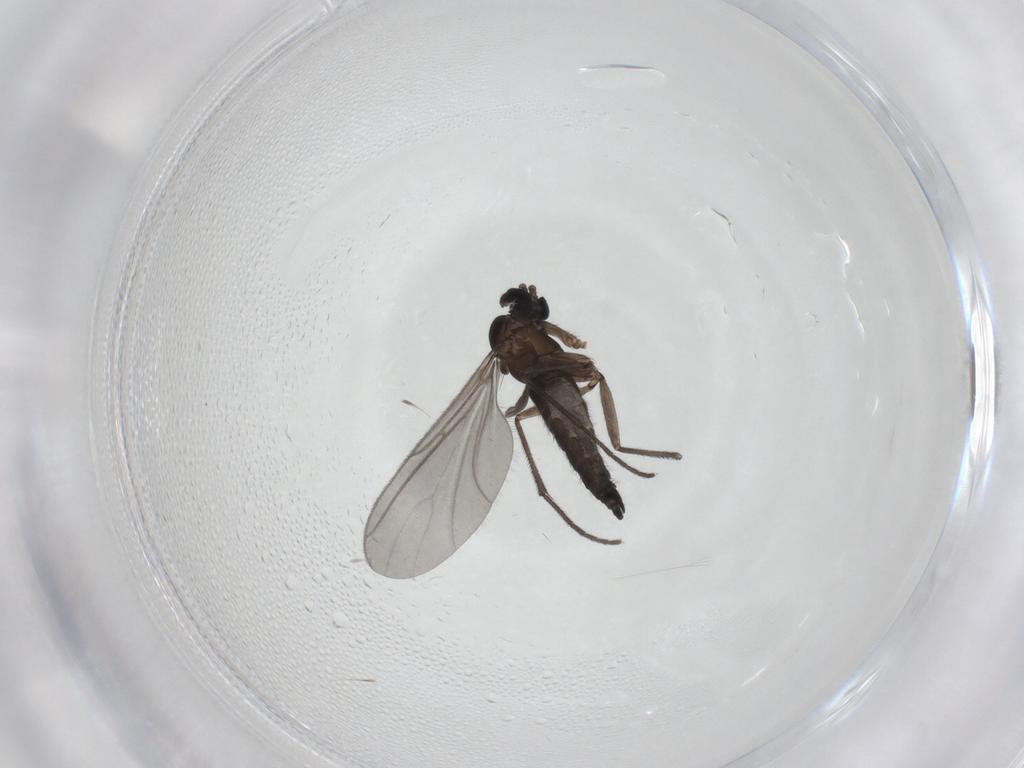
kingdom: Animalia
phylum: Arthropoda
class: Insecta
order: Diptera
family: Sciaridae
